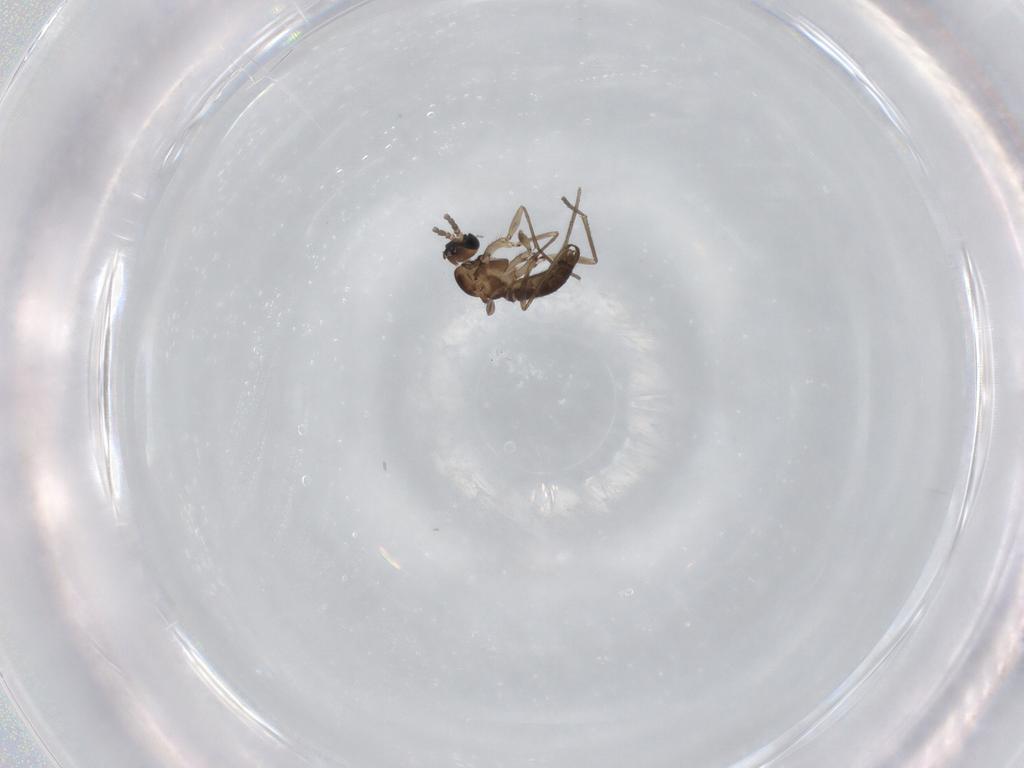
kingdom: Animalia
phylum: Arthropoda
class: Insecta
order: Diptera
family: Sciaridae
